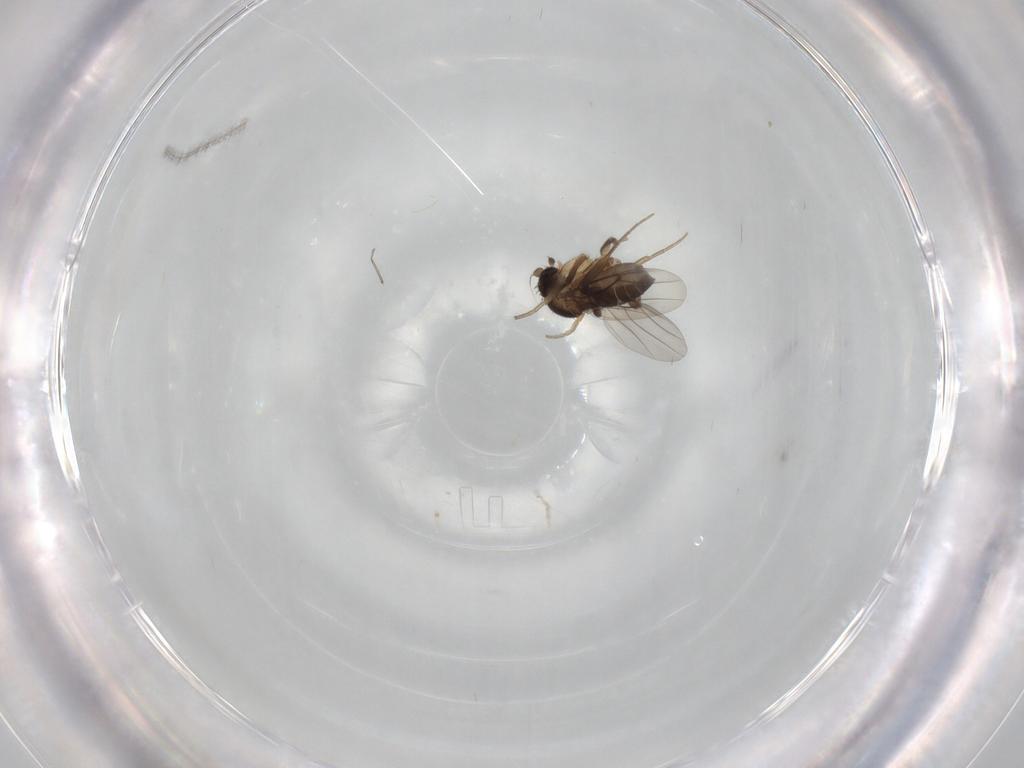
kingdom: Animalia
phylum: Arthropoda
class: Insecta
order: Diptera
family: Phoridae
